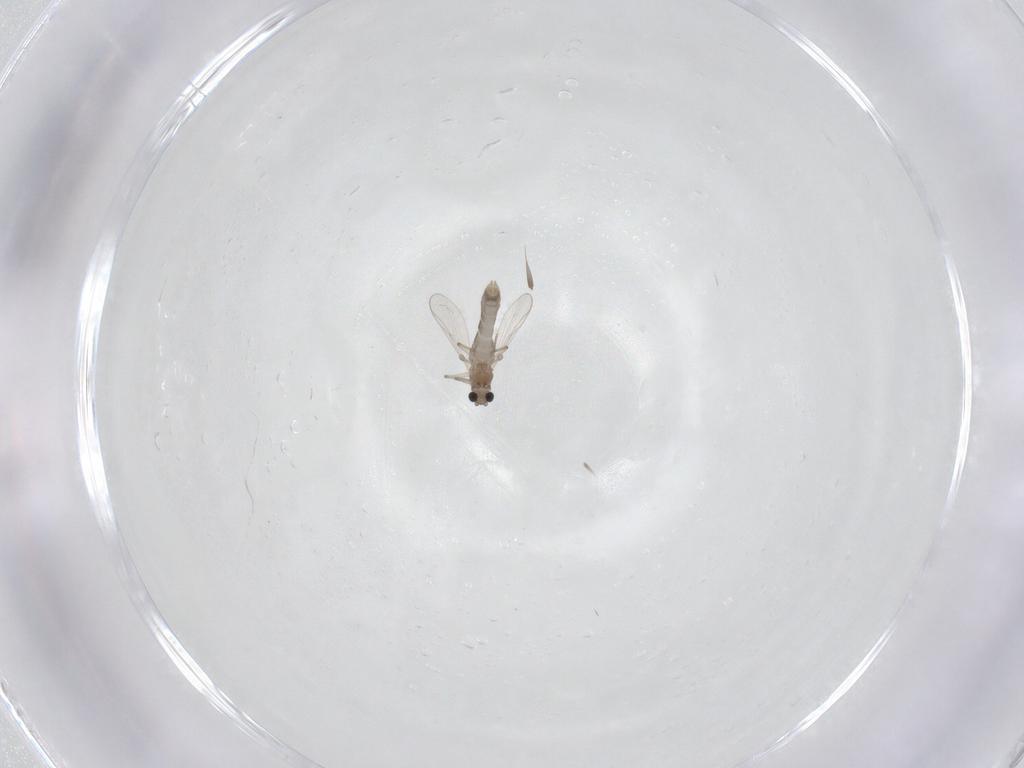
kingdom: Animalia
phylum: Arthropoda
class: Insecta
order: Diptera
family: Chironomidae
